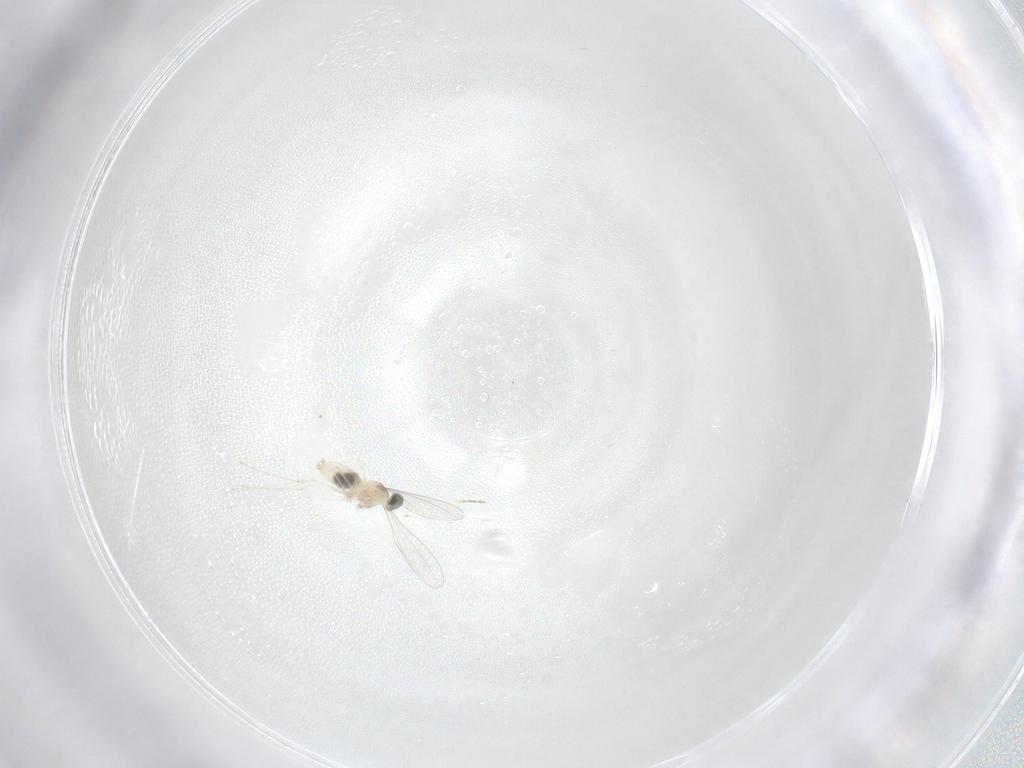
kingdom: Animalia
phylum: Arthropoda
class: Insecta
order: Diptera
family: Cecidomyiidae
